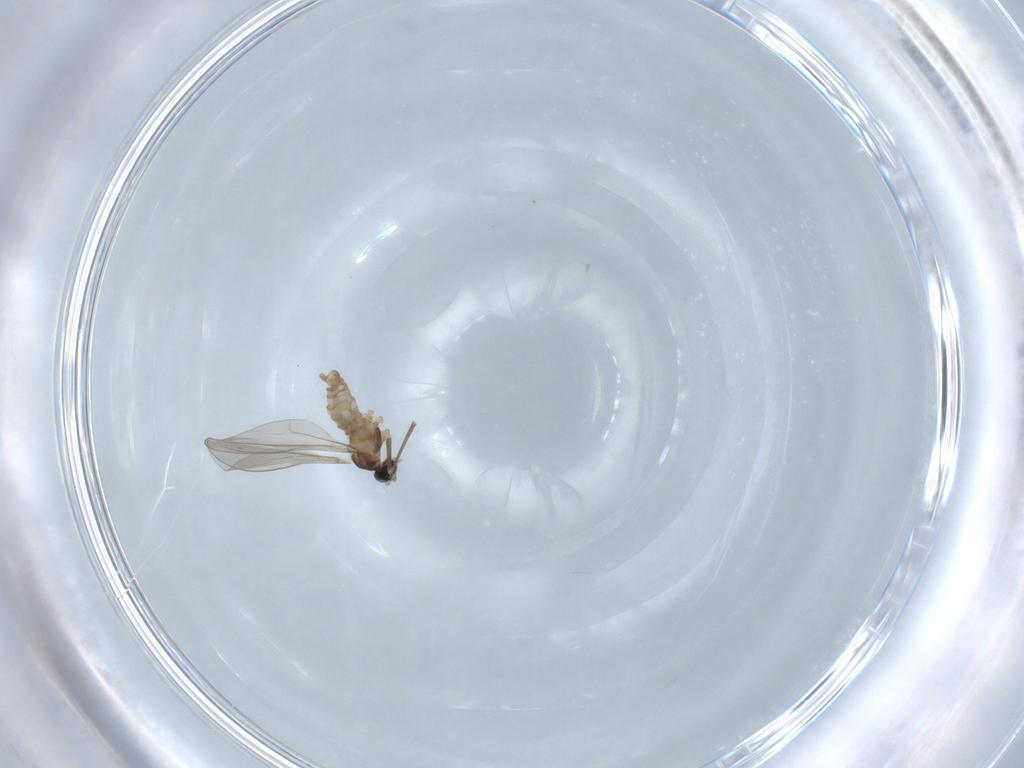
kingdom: Animalia
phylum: Arthropoda
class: Insecta
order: Diptera
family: Cecidomyiidae
